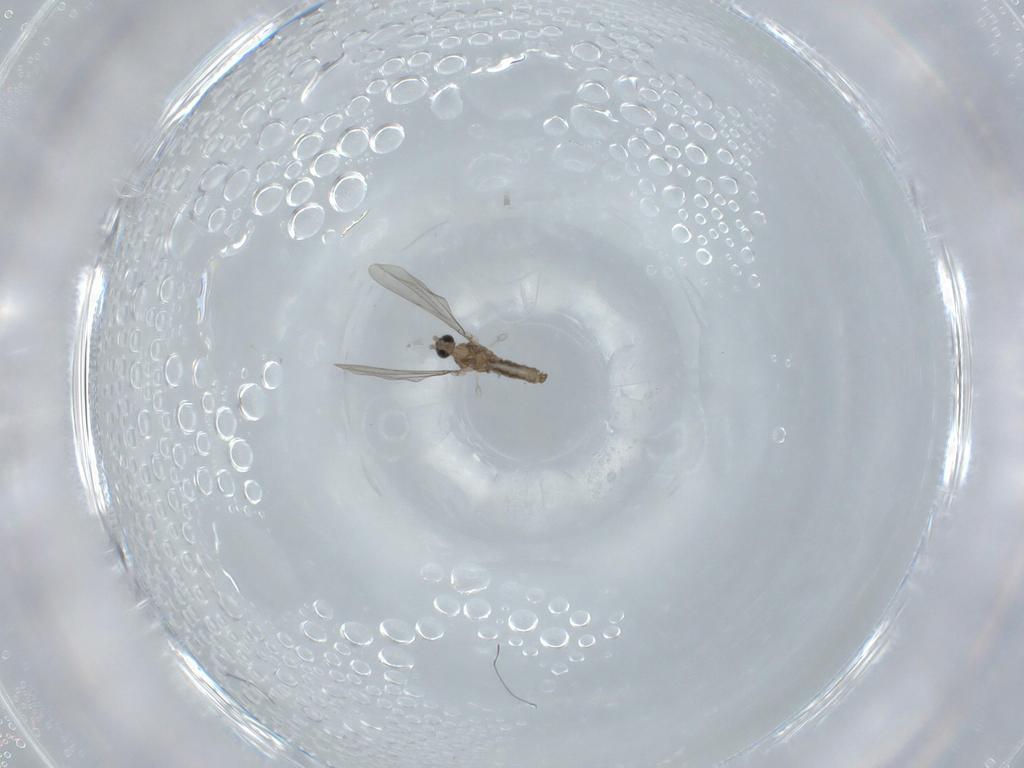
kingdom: Animalia
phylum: Arthropoda
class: Insecta
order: Diptera
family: Cecidomyiidae
